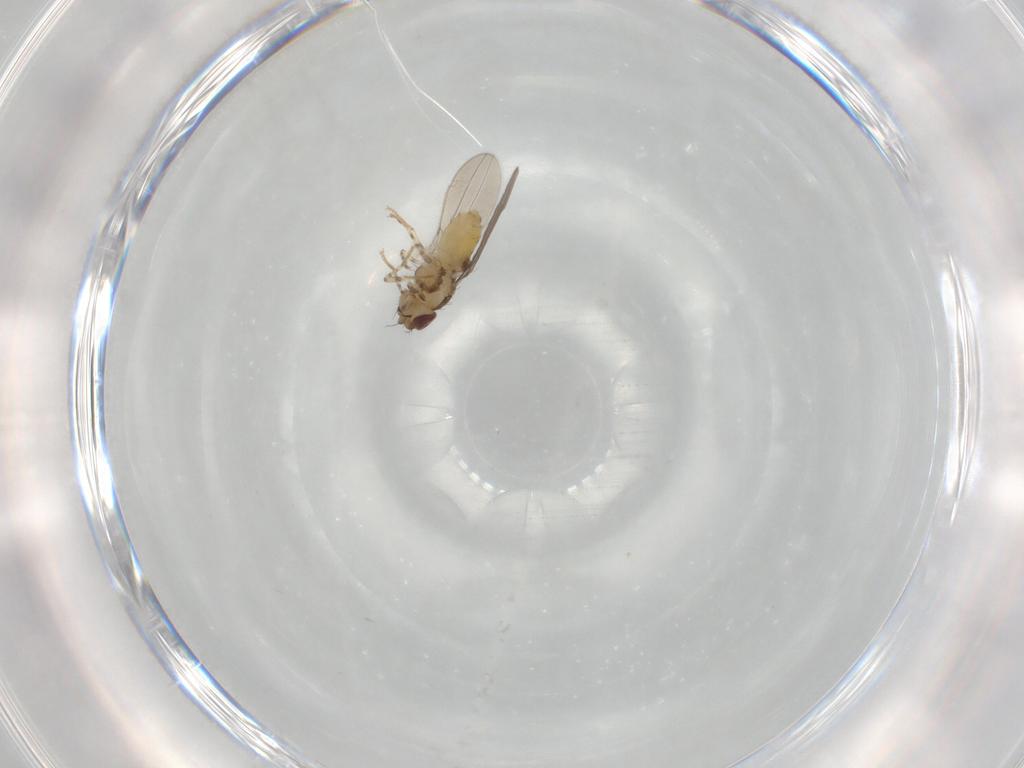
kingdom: Animalia
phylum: Arthropoda
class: Insecta
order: Diptera
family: Asteiidae
